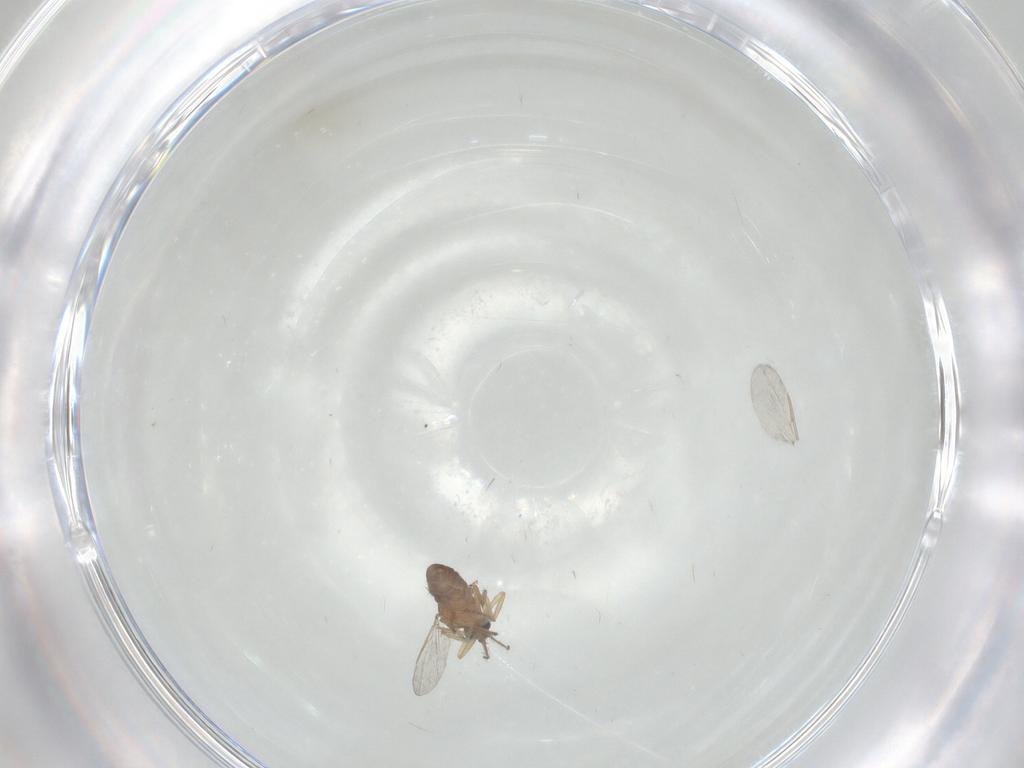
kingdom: Animalia
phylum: Arthropoda
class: Insecta
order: Diptera
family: Ceratopogonidae
